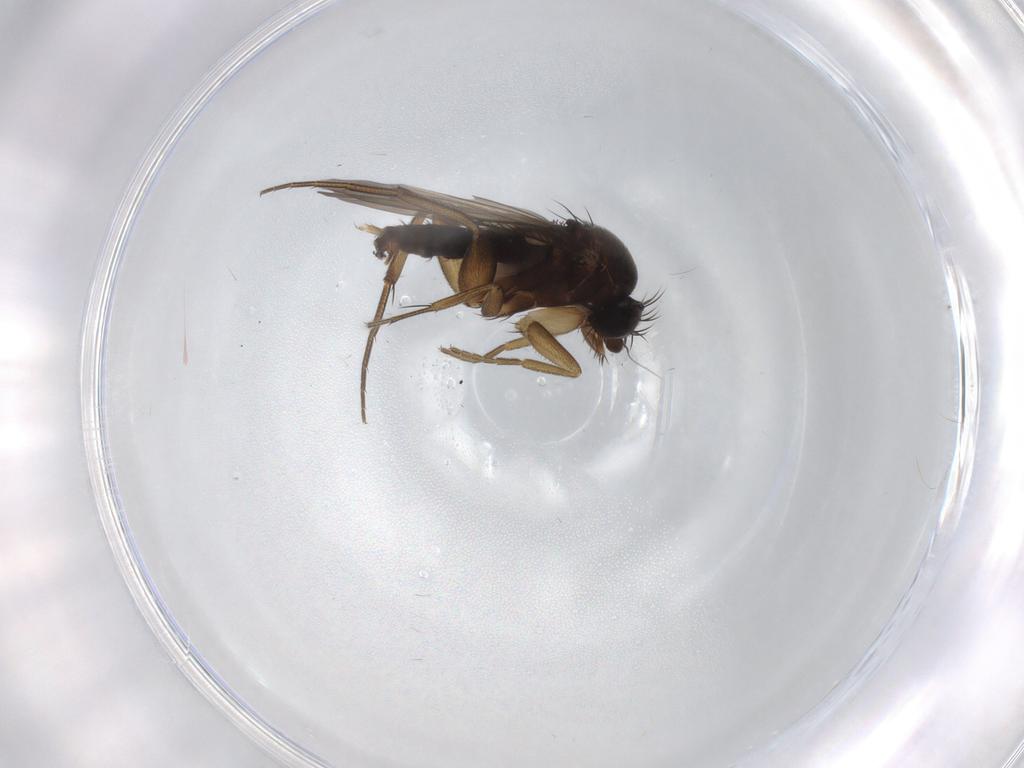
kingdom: Animalia
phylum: Arthropoda
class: Insecta
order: Diptera
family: Phoridae
